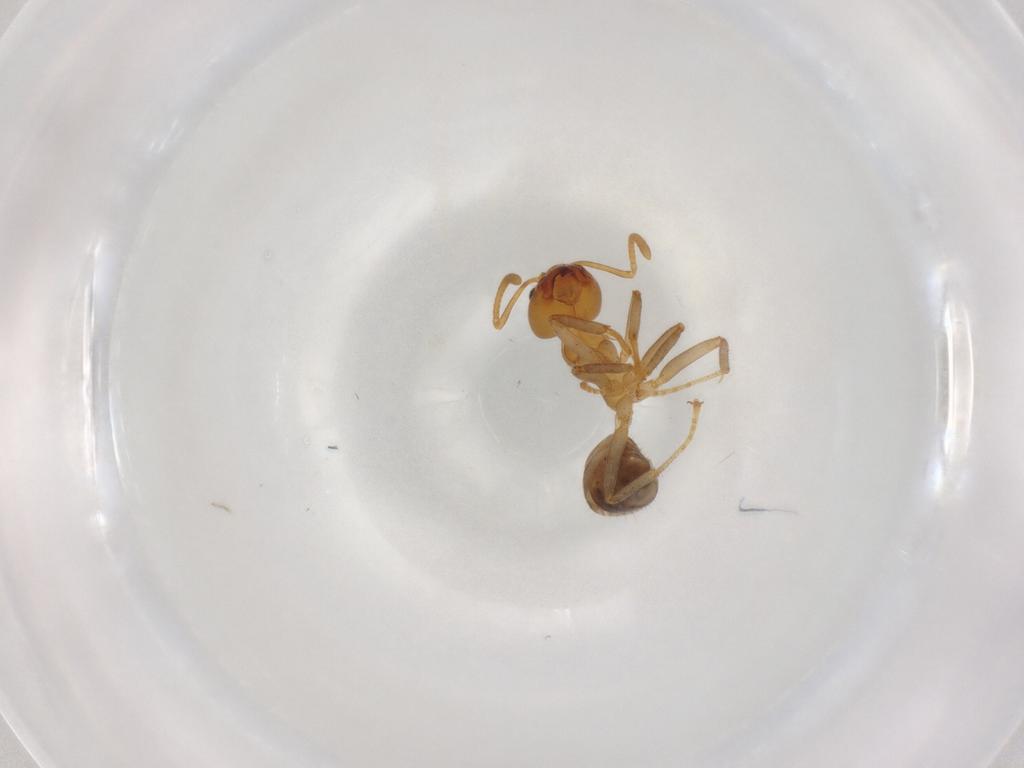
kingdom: Animalia
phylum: Arthropoda
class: Insecta
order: Hymenoptera
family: Formicidae
